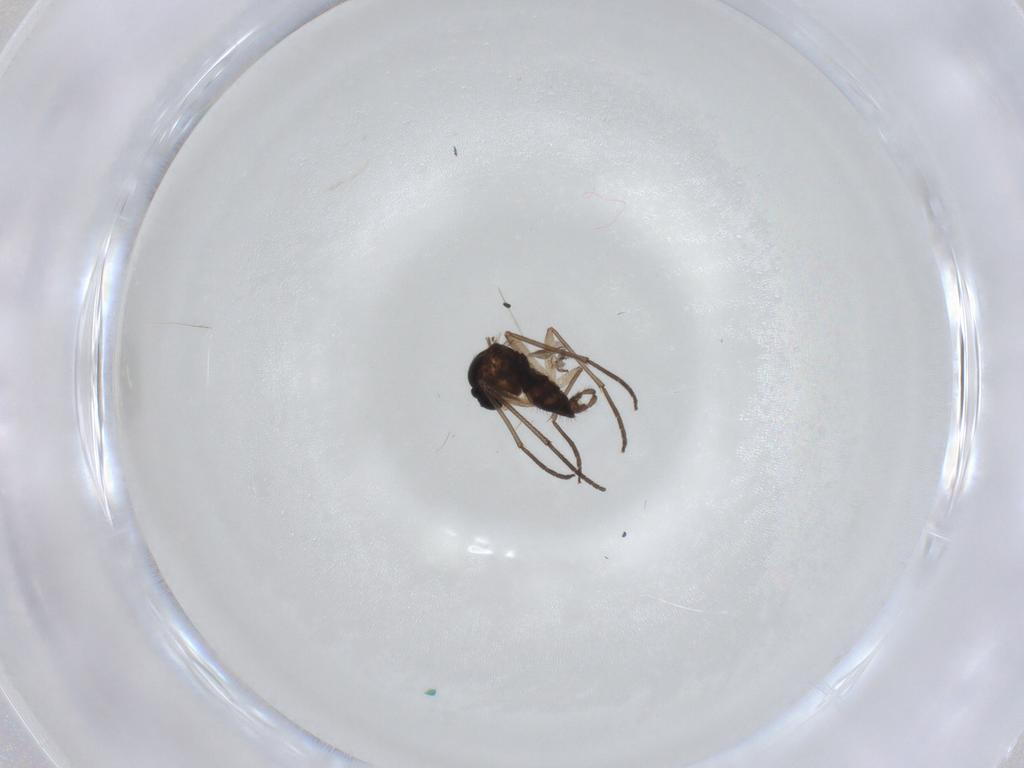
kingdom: Animalia
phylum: Arthropoda
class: Insecta
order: Diptera
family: Sciaridae
